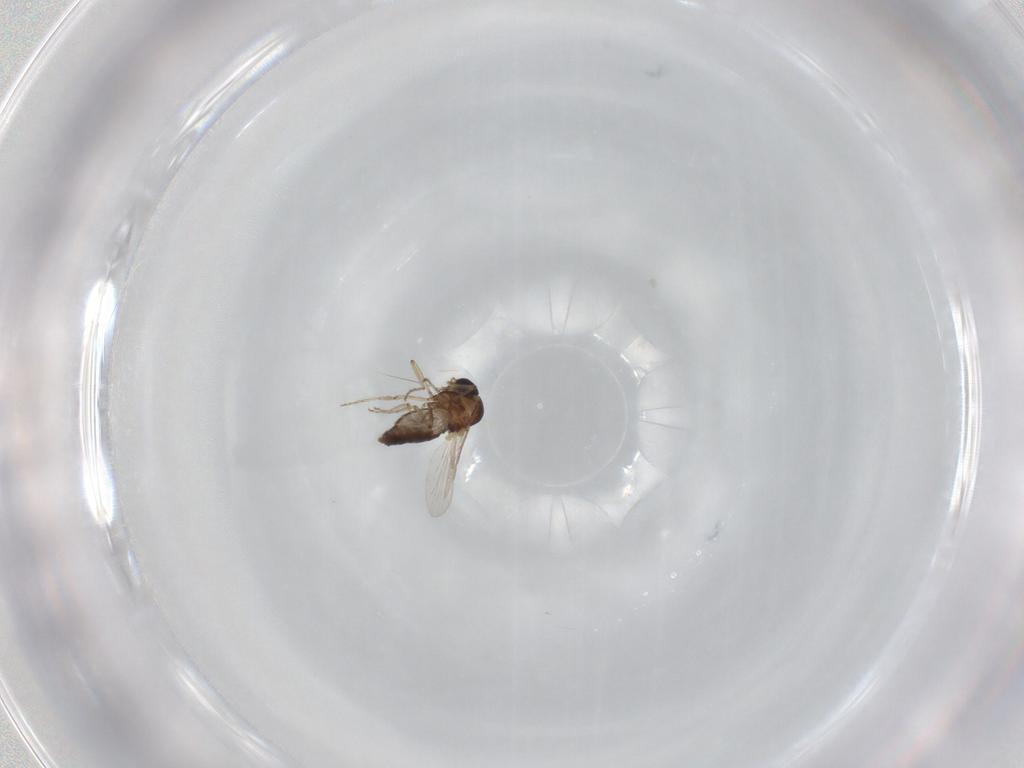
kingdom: Animalia
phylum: Arthropoda
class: Insecta
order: Diptera
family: Ceratopogonidae
